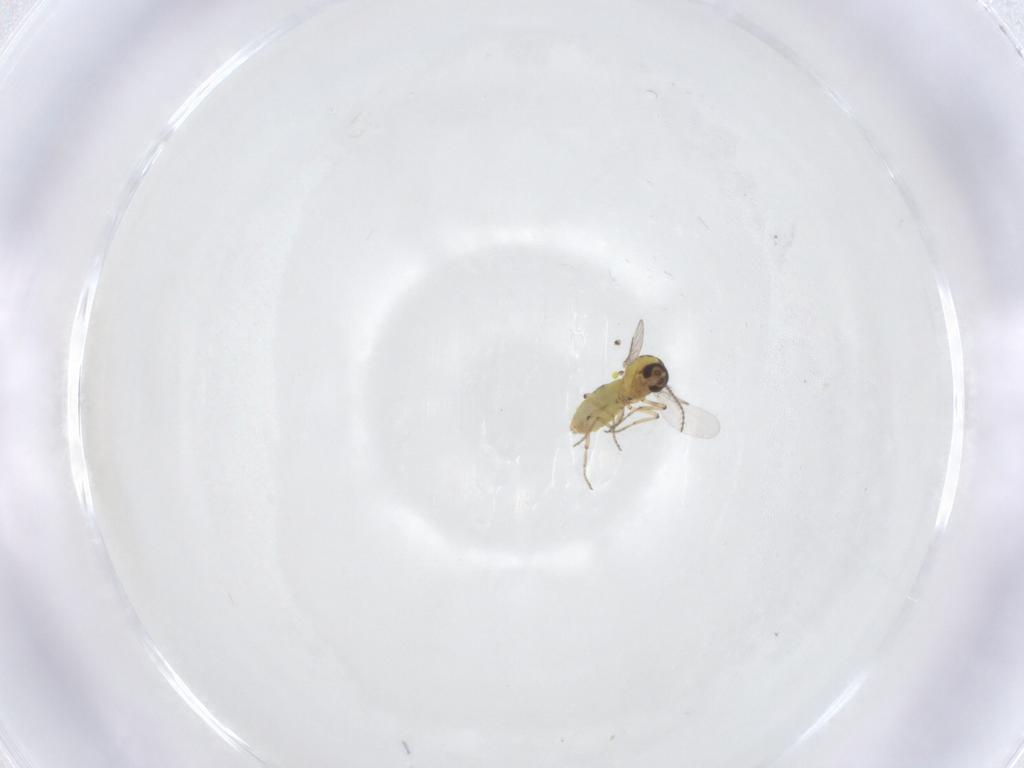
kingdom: Animalia
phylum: Arthropoda
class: Insecta
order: Diptera
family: Ceratopogonidae
